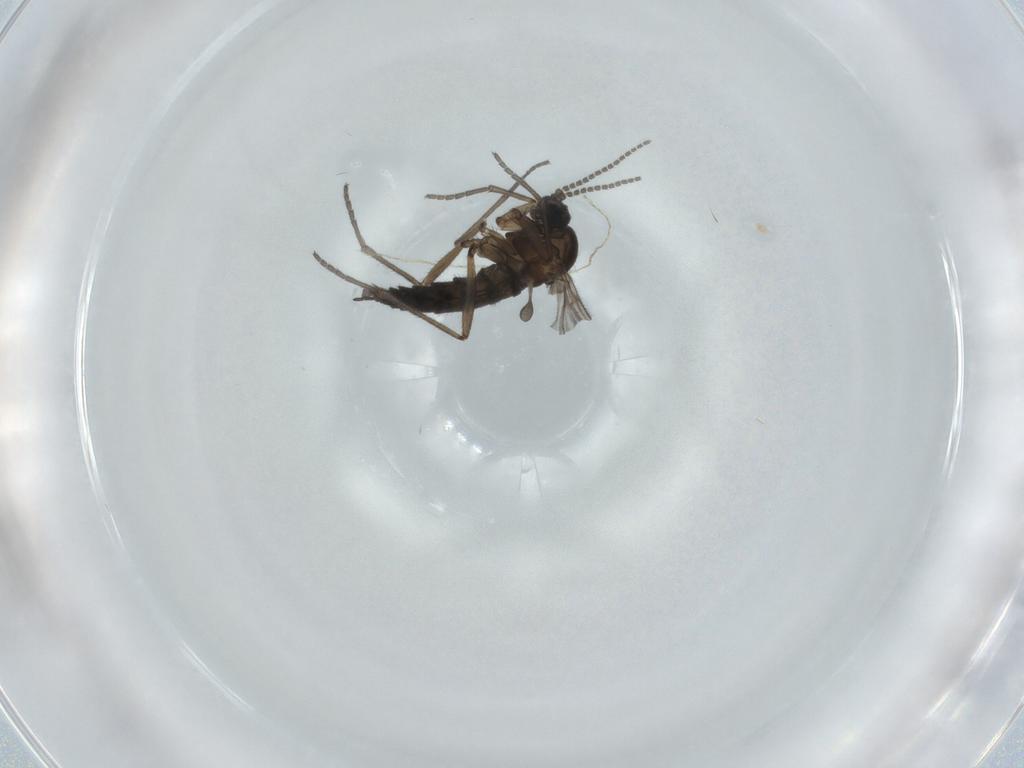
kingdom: Animalia
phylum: Arthropoda
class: Insecta
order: Diptera
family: Sciaridae
